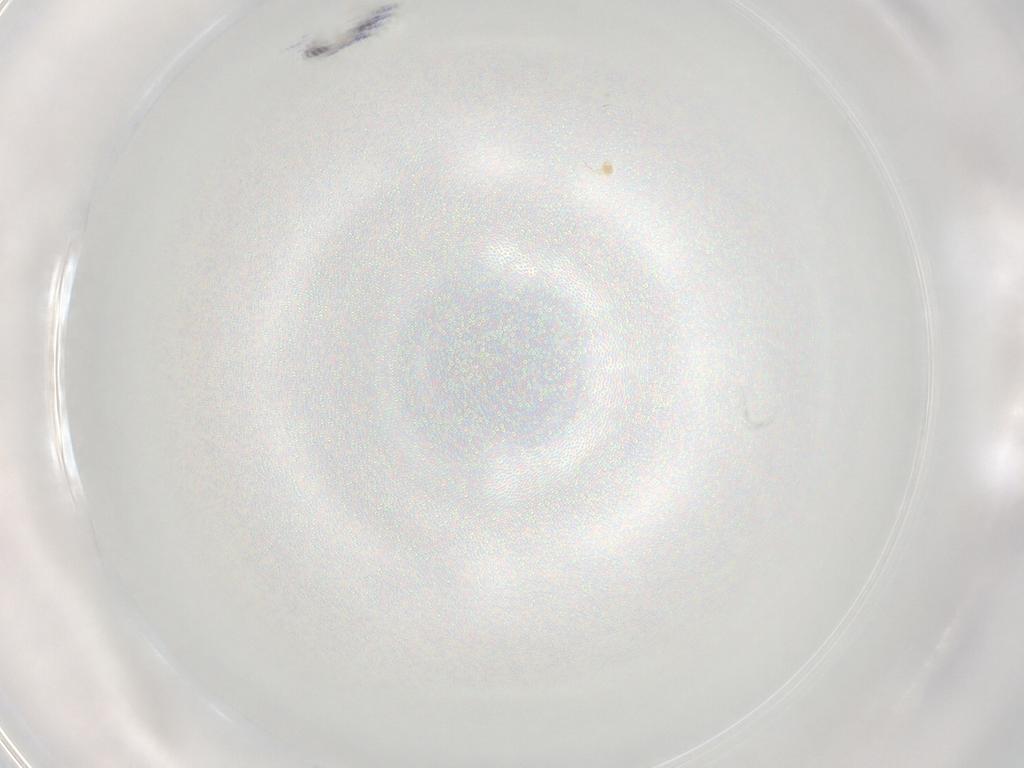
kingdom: Animalia
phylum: Arthropoda
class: Collembola
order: Entomobryomorpha
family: Entomobryidae
